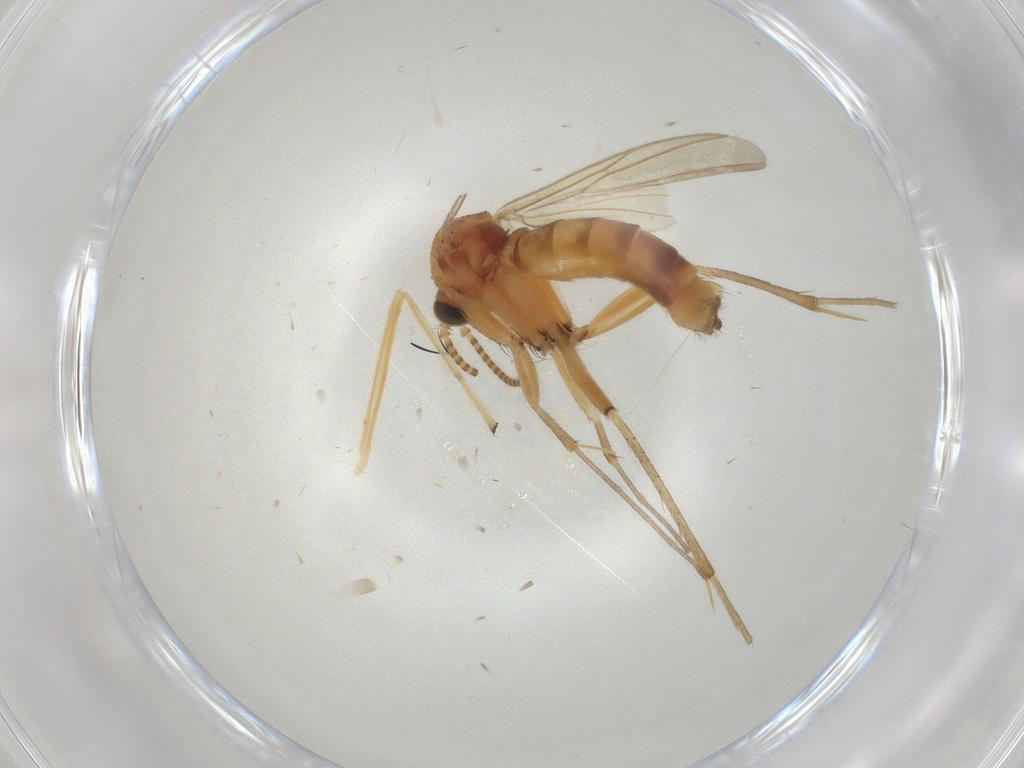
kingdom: Animalia
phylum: Arthropoda
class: Insecta
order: Diptera
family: Mycetophilidae
